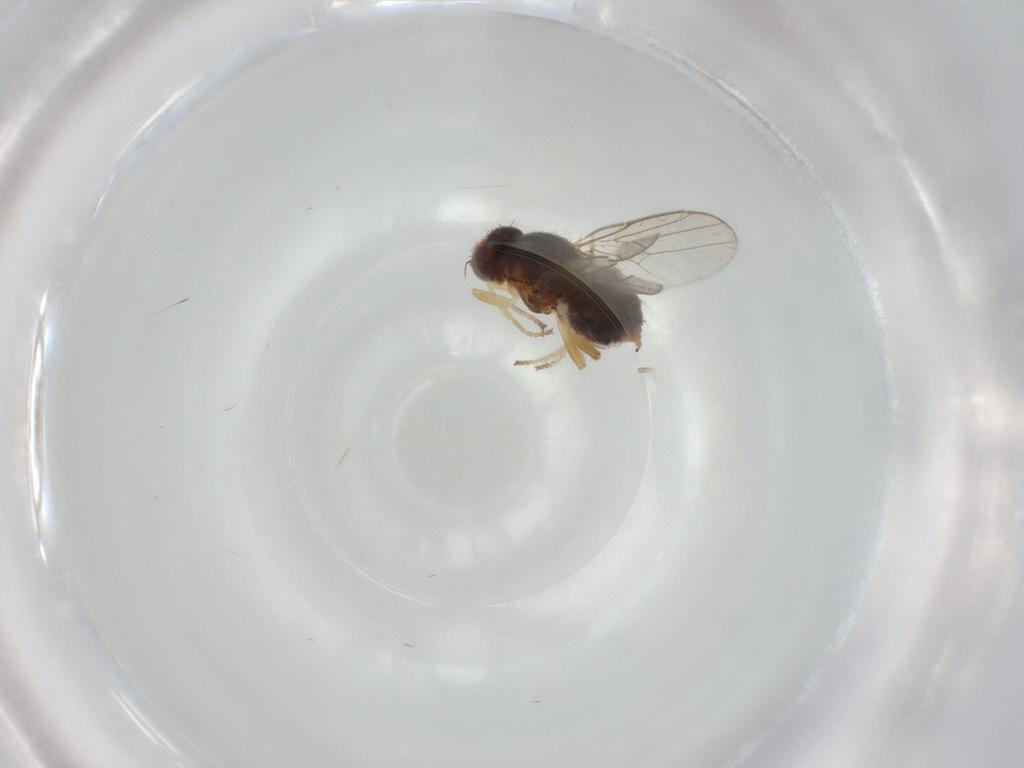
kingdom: Animalia
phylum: Arthropoda
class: Insecta
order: Diptera
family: Chloropidae
